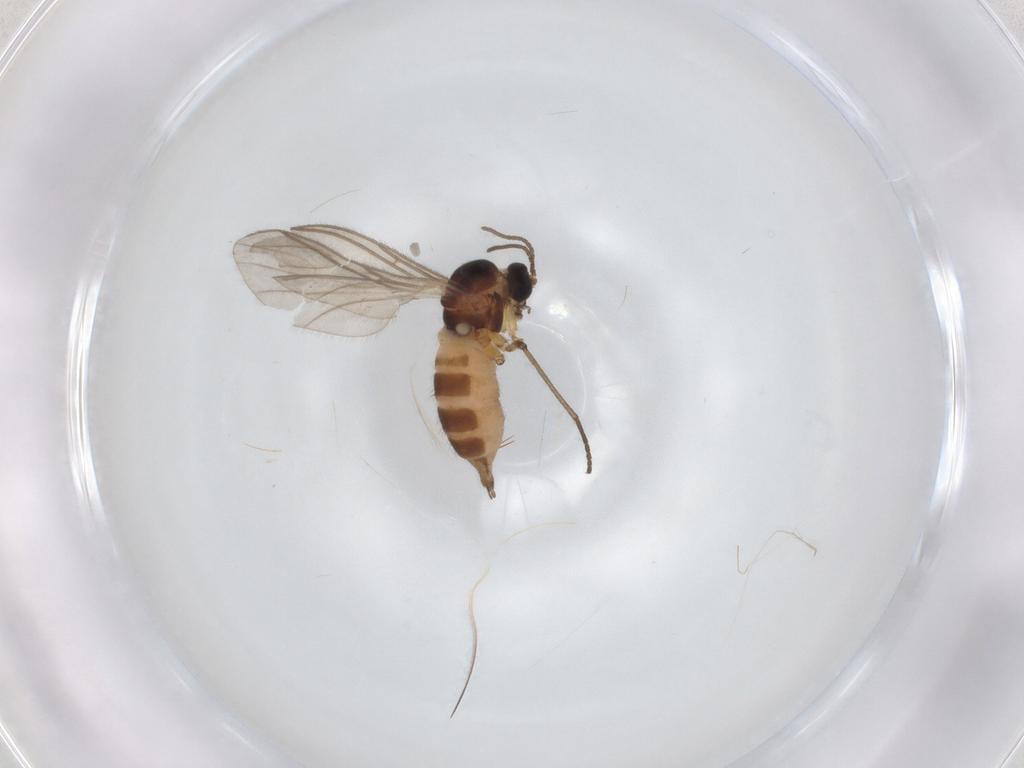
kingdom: Animalia
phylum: Arthropoda
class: Insecta
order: Diptera
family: Sciaridae
